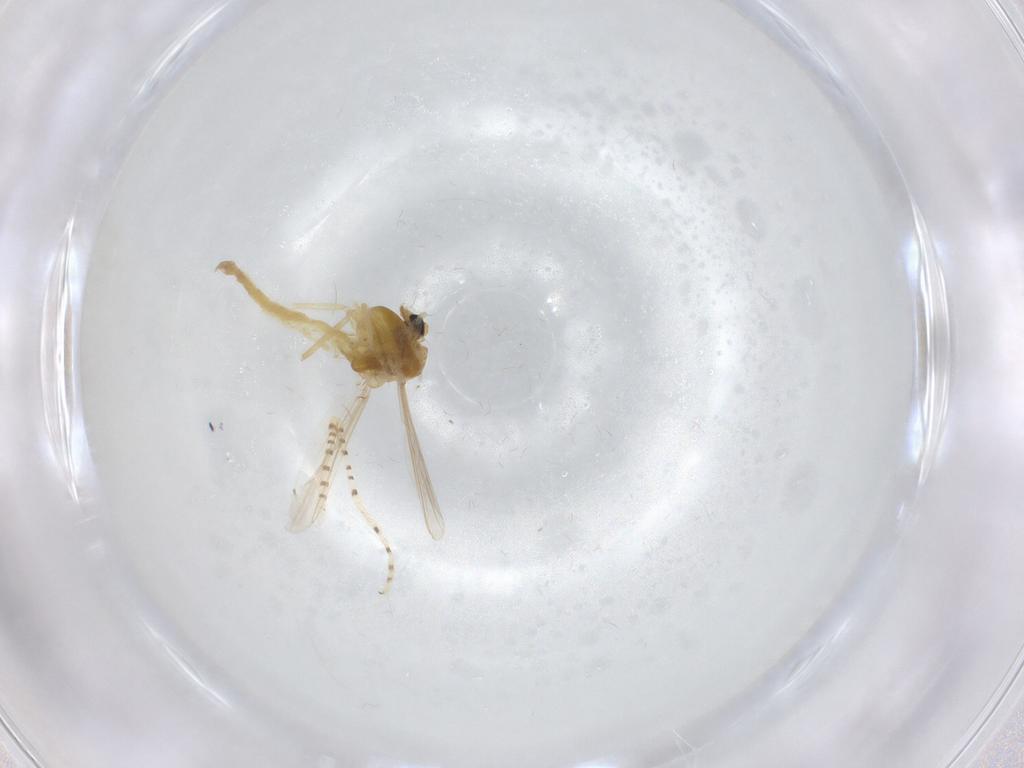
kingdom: Animalia
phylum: Arthropoda
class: Insecta
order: Diptera
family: Chironomidae
